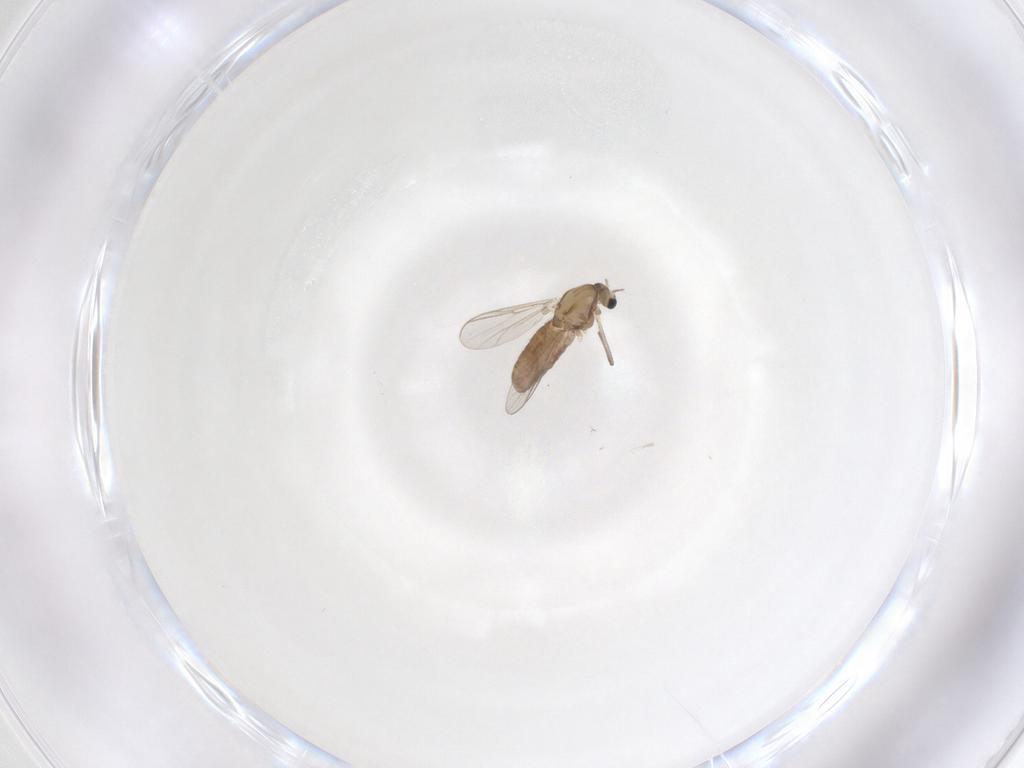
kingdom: Animalia
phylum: Arthropoda
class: Insecta
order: Diptera
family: Chironomidae
